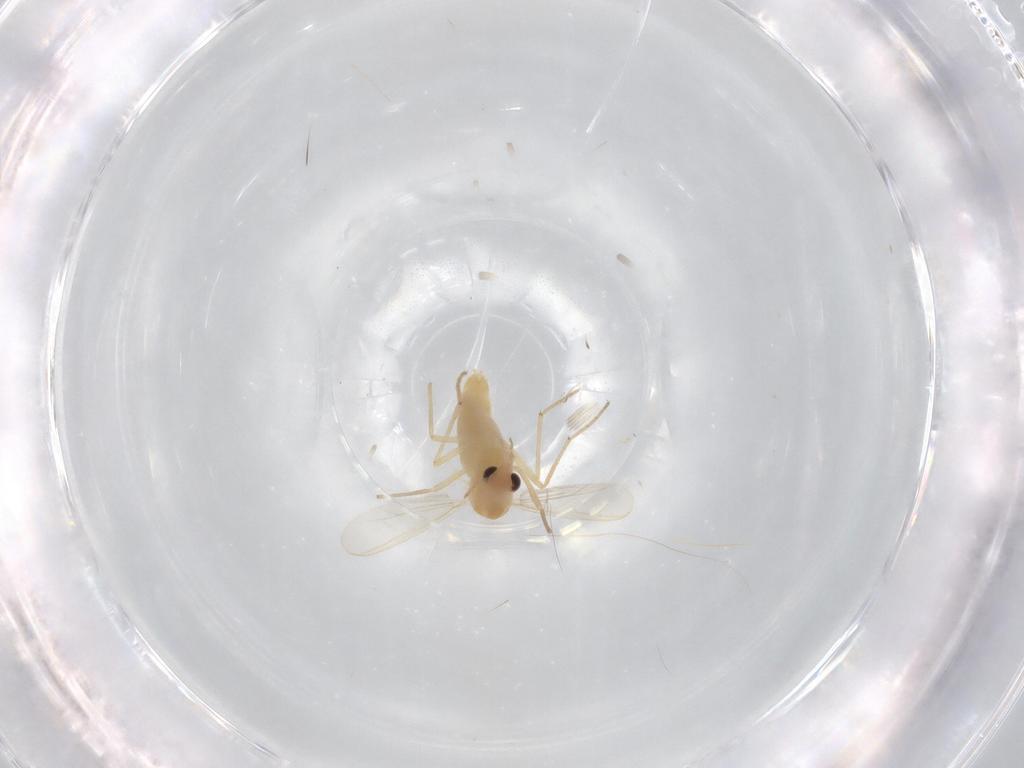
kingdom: Animalia
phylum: Arthropoda
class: Insecta
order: Diptera
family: Chironomidae
